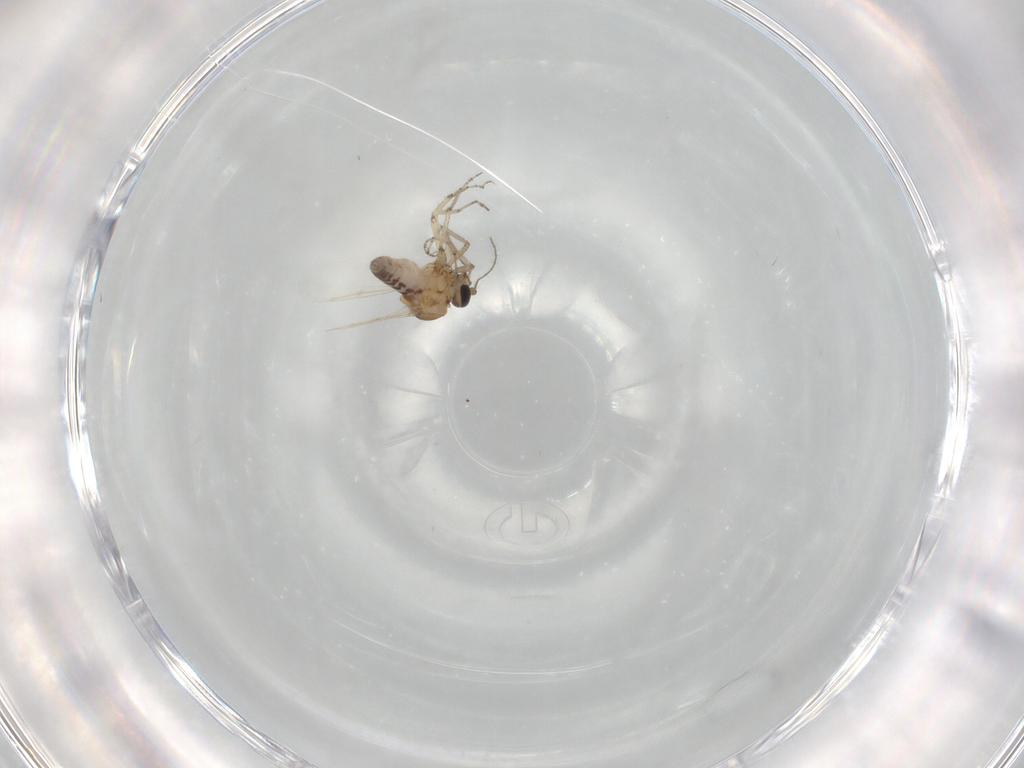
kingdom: Animalia
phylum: Arthropoda
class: Insecta
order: Diptera
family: Ceratopogonidae
